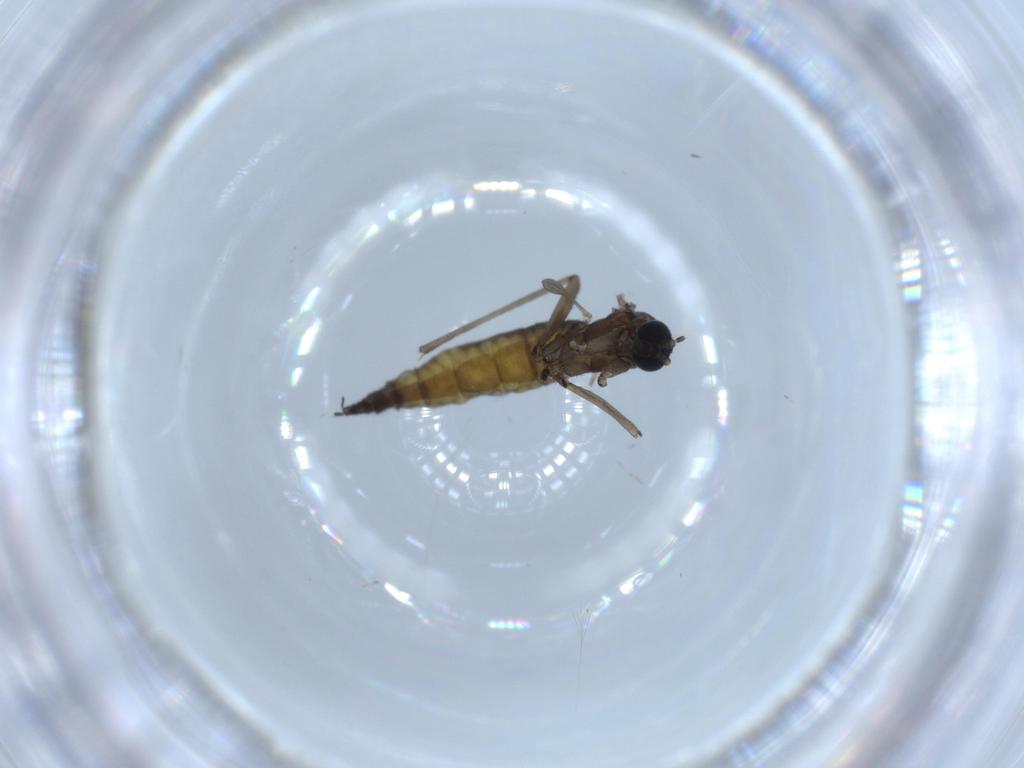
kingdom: Animalia
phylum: Arthropoda
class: Insecta
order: Diptera
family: Sciaridae
